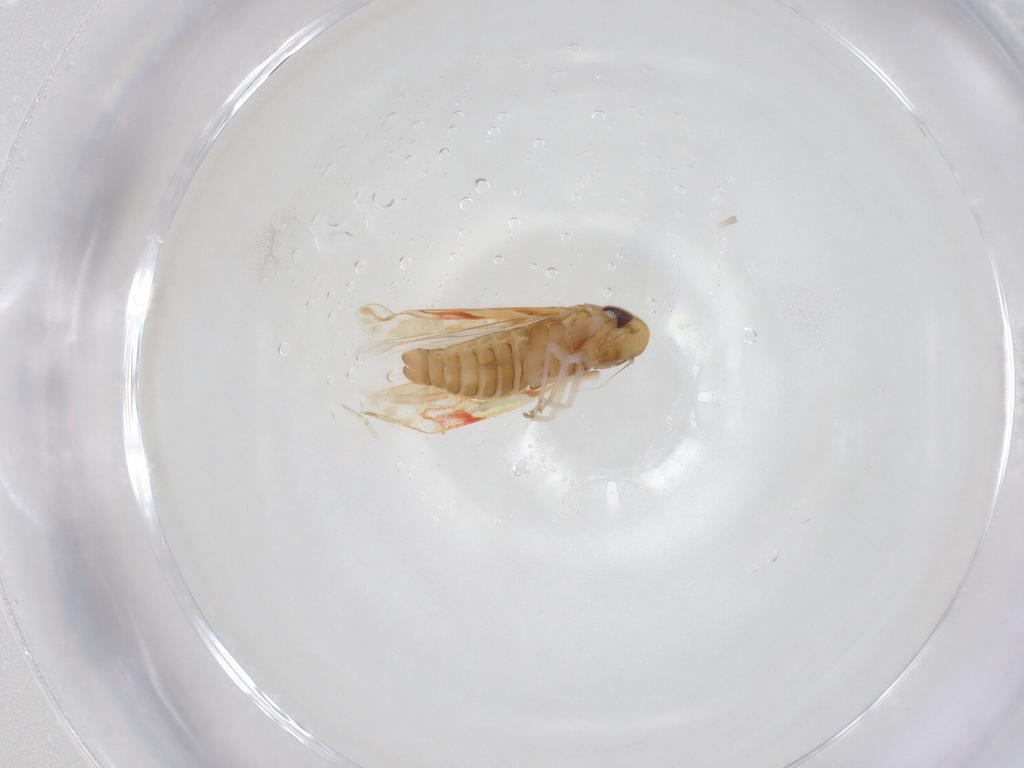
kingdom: Animalia
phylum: Arthropoda
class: Insecta
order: Hemiptera
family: Cicadellidae
